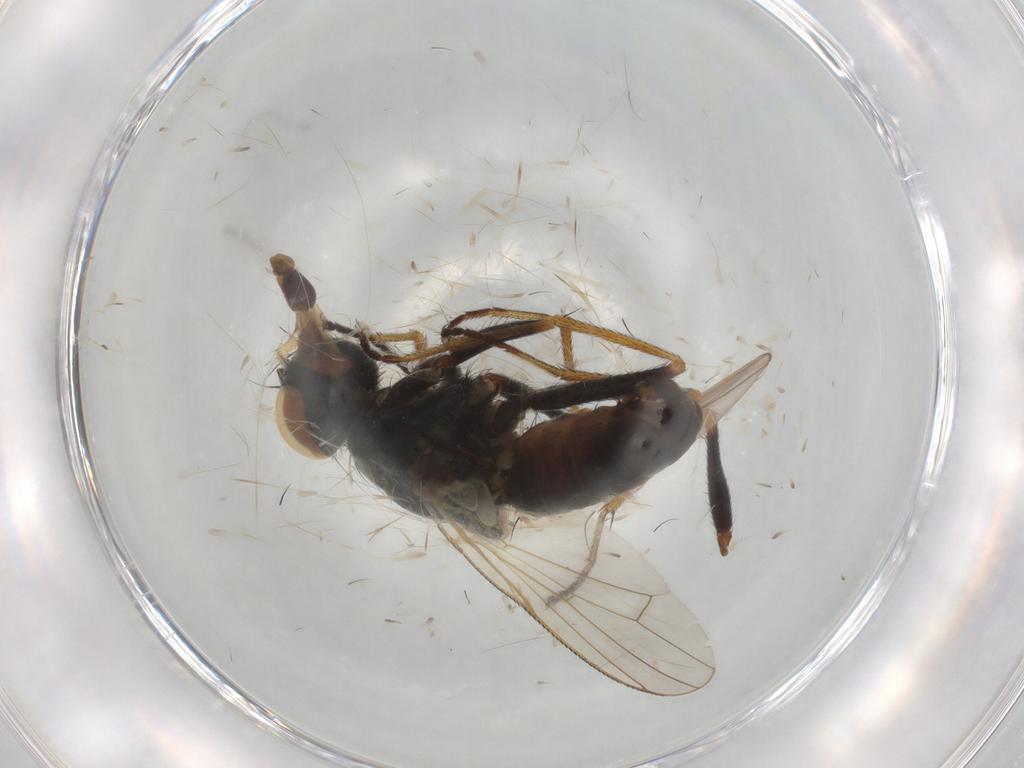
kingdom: Animalia
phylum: Arthropoda
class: Insecta
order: Diptera
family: Muscidae
